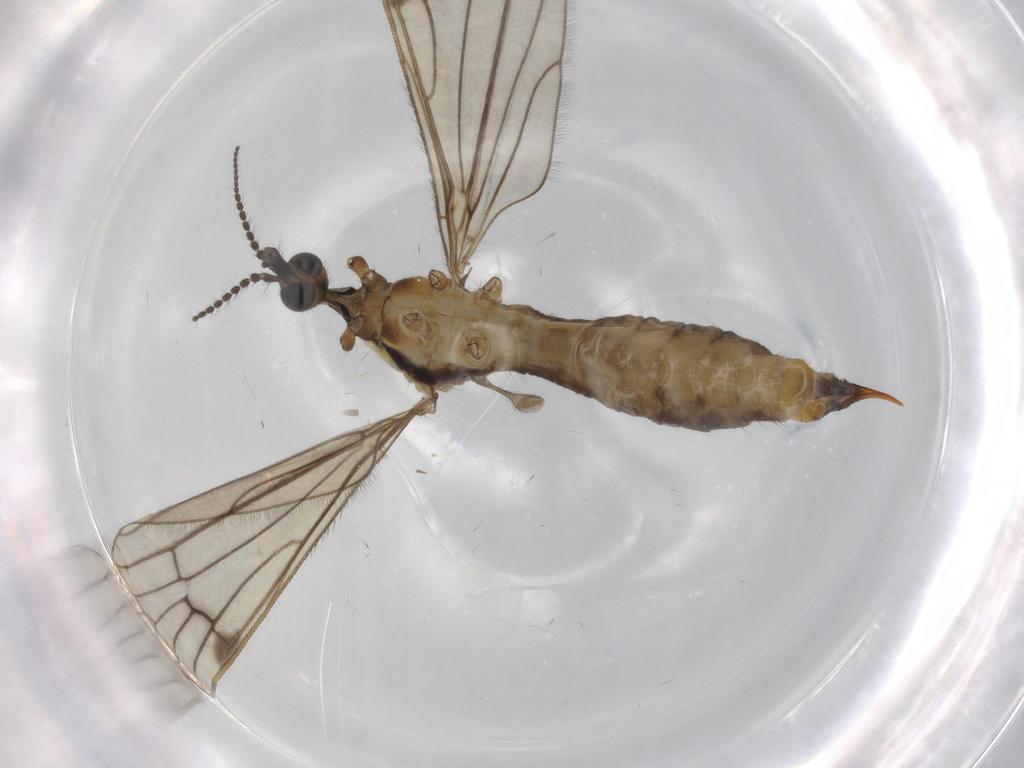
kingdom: Animalia
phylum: Arthropoda
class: Insecta
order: Diptera
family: Limoniidae
